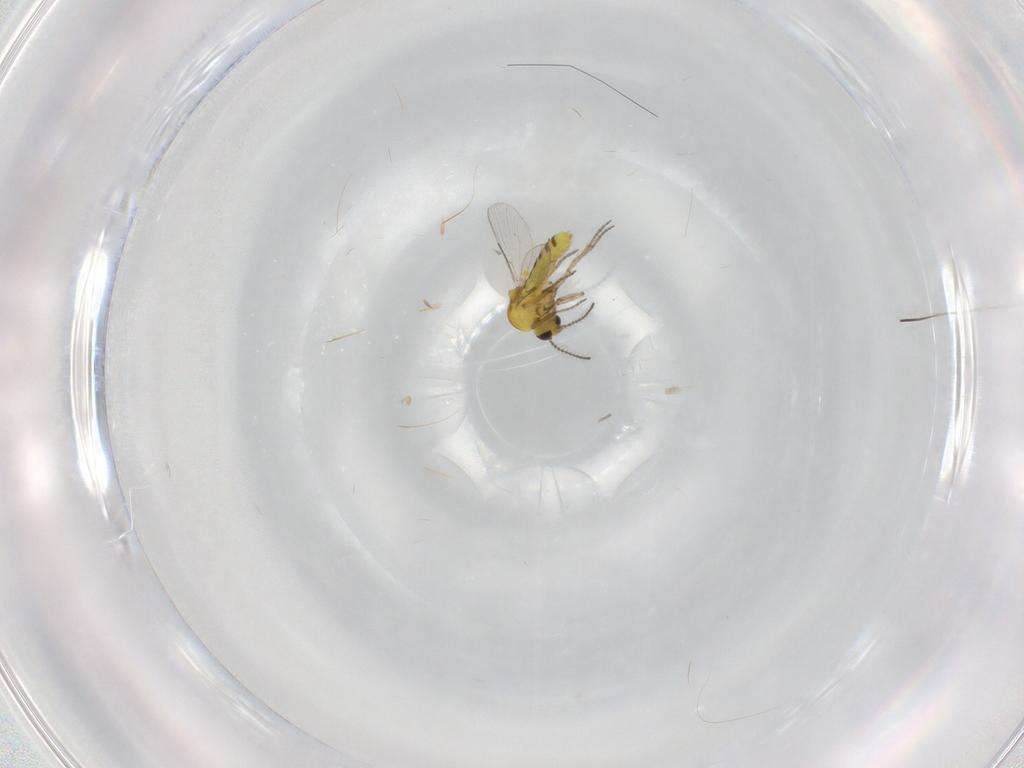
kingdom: Animalia
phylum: Arthropoda
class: Insecta
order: Diptera
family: Ceratopogonidae
